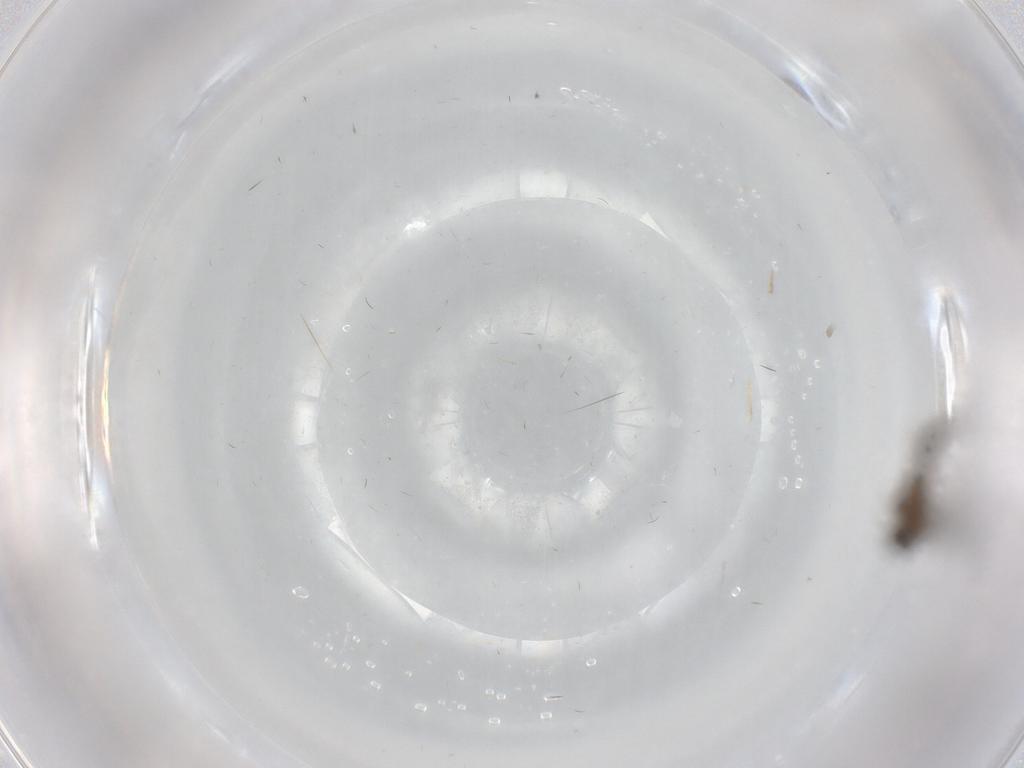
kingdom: Animalia
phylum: Arthropoda
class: Insecta
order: Diptera
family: Sciaridae
